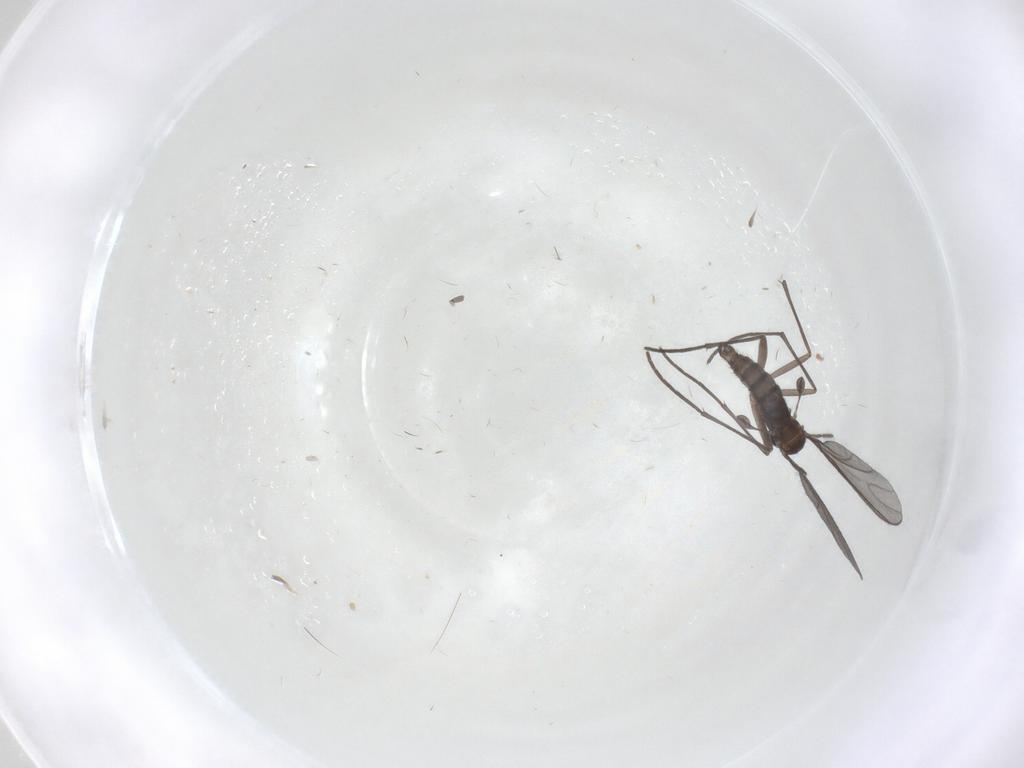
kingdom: Animalia
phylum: Arthropoda
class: Insecta
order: Diptera
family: Sciaridae
